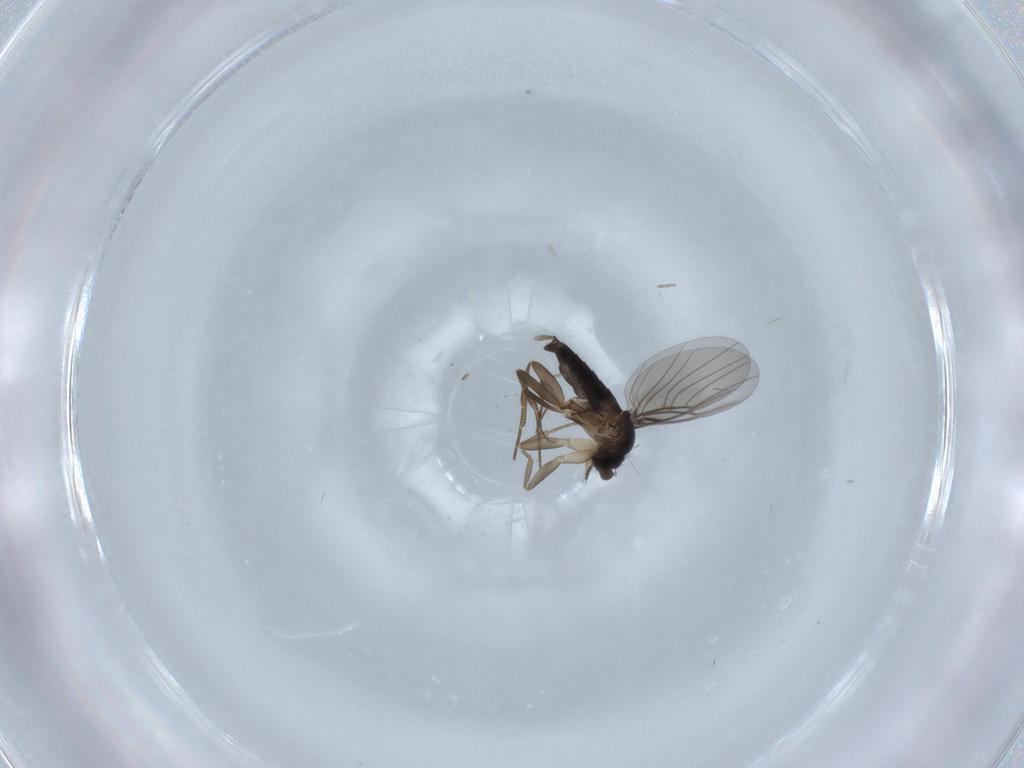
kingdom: Animalia
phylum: Arthropoda
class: Insecta
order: Diptera
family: Phoridae
